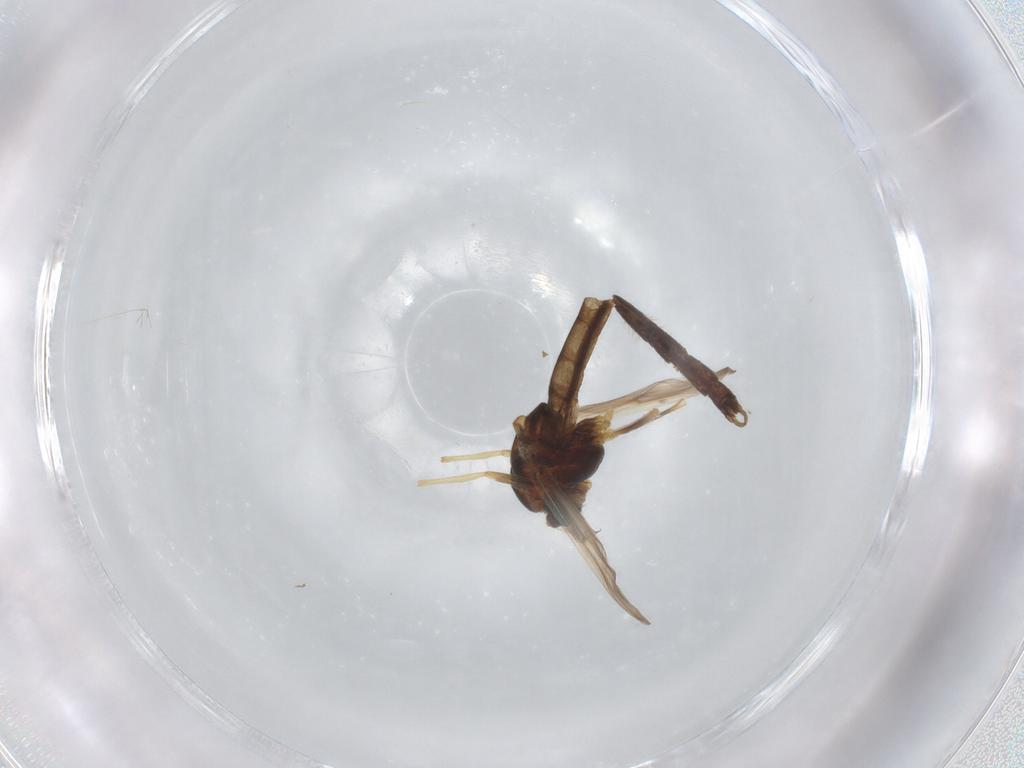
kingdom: Animalia
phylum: Arthropoda
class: Insecta
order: Diptera
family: Chironomidae
